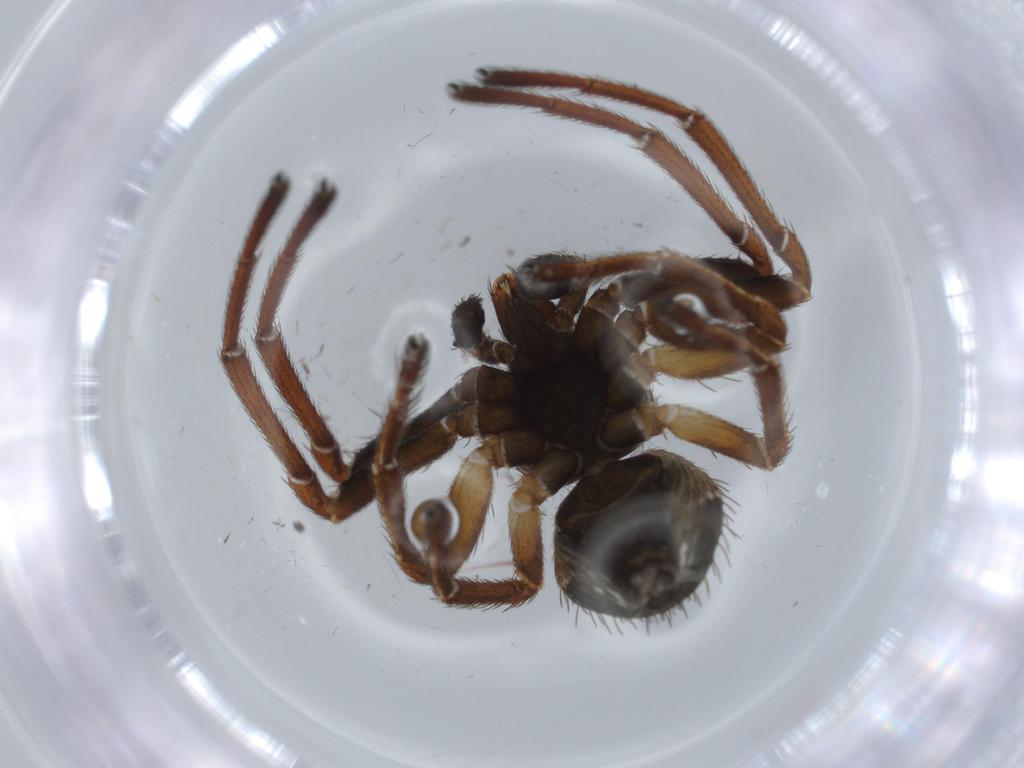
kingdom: Animalia
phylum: Arthropoda
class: Arachnida
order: Araneae
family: Thomisidae
